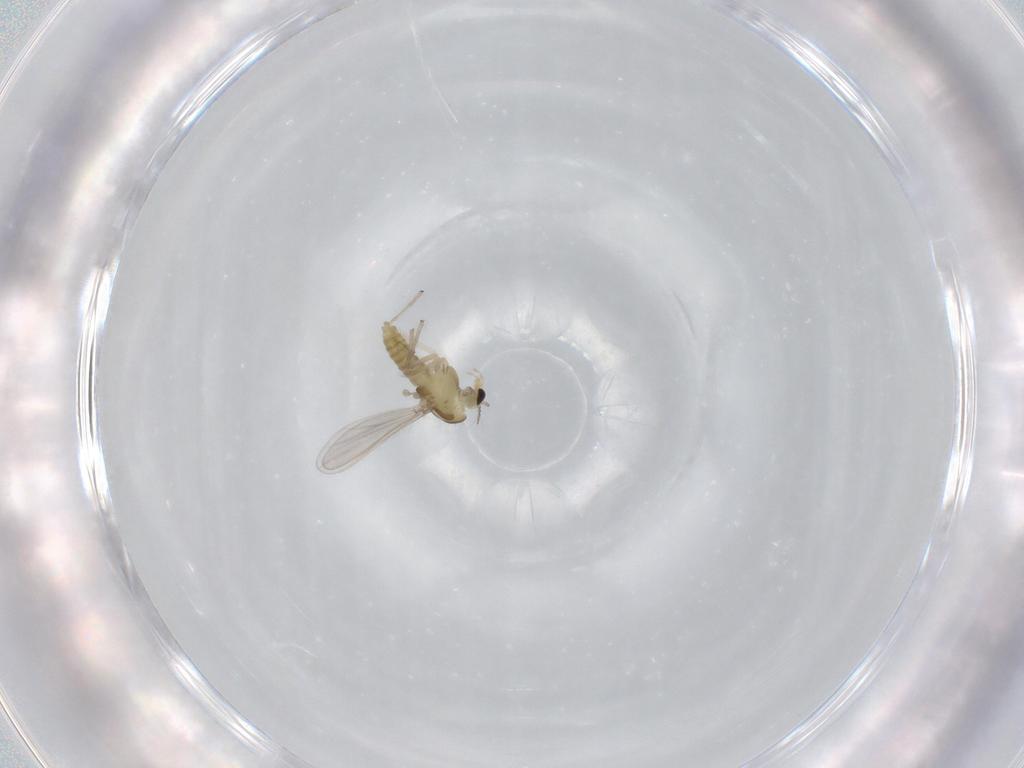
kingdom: Animalia
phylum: Arthropoda
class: Insecta
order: Diptera
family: Chironomidae
